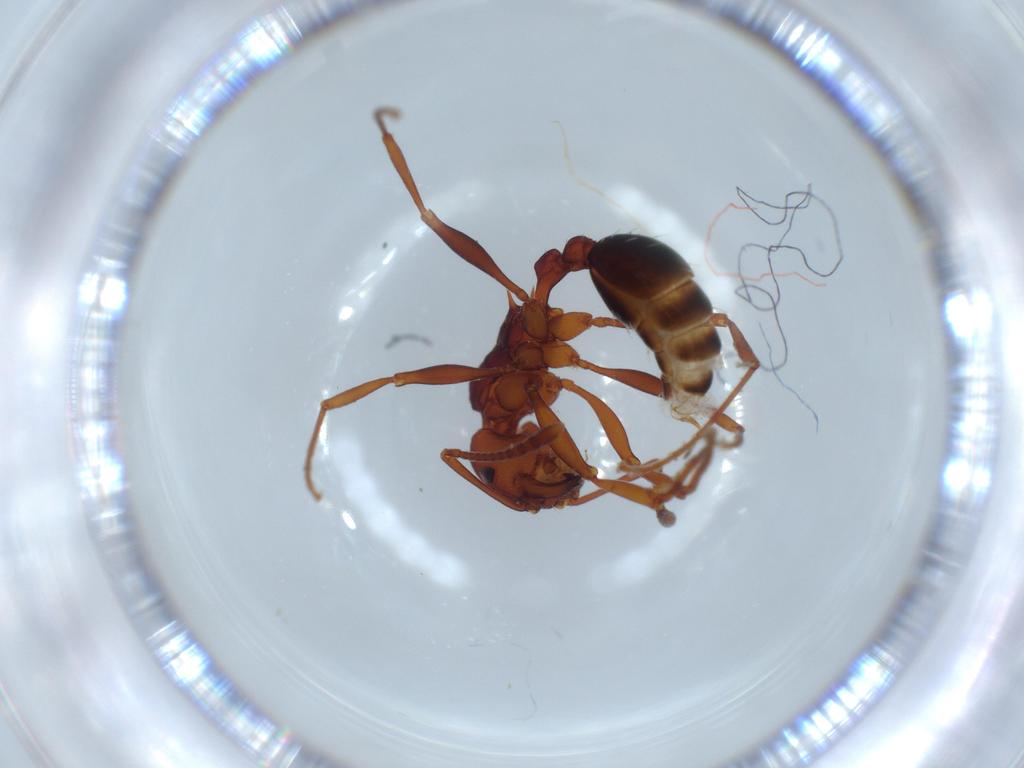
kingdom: Animalia
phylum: Arthropoda
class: Insecta
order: Hymenoptera
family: Formicidae
